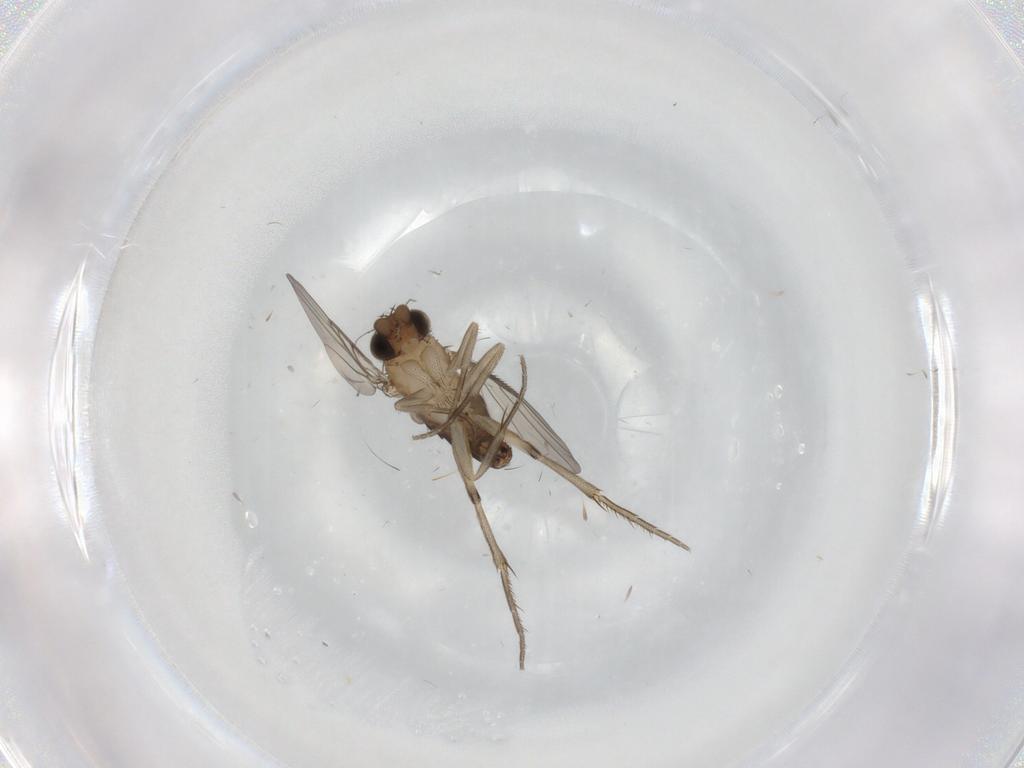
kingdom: Animalia
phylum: Arthropoda
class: Insecta
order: Diptera
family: Phoridae
